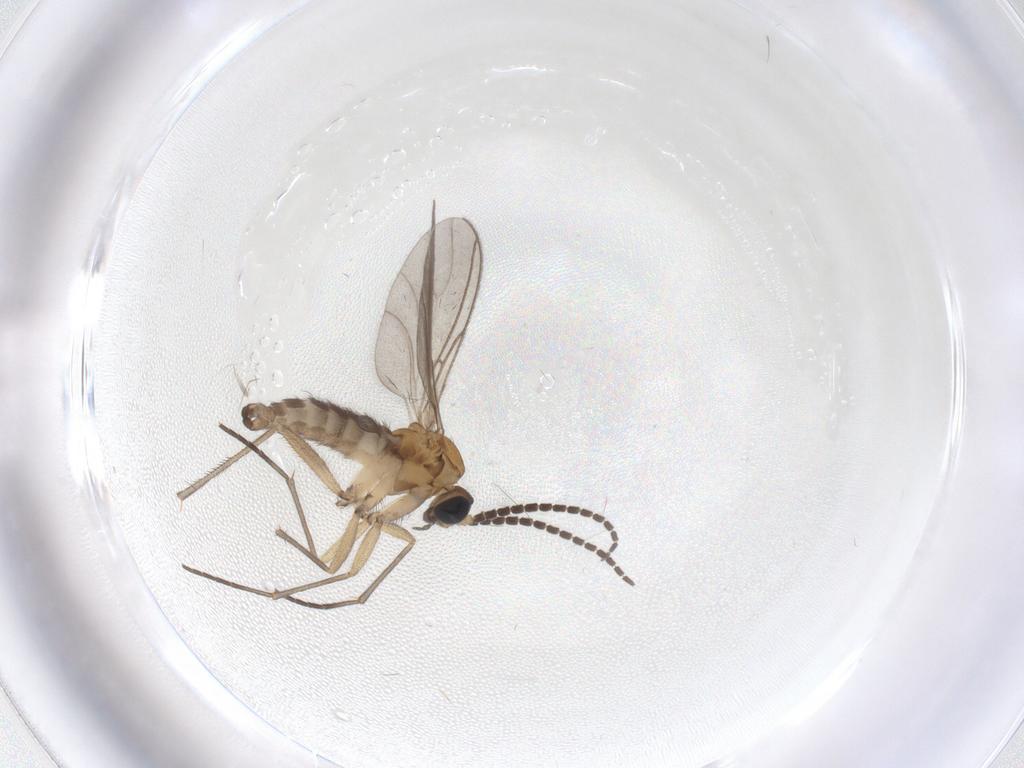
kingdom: Animalia
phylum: Arthropoda
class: Insecta
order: Diptera
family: Sciaridae
